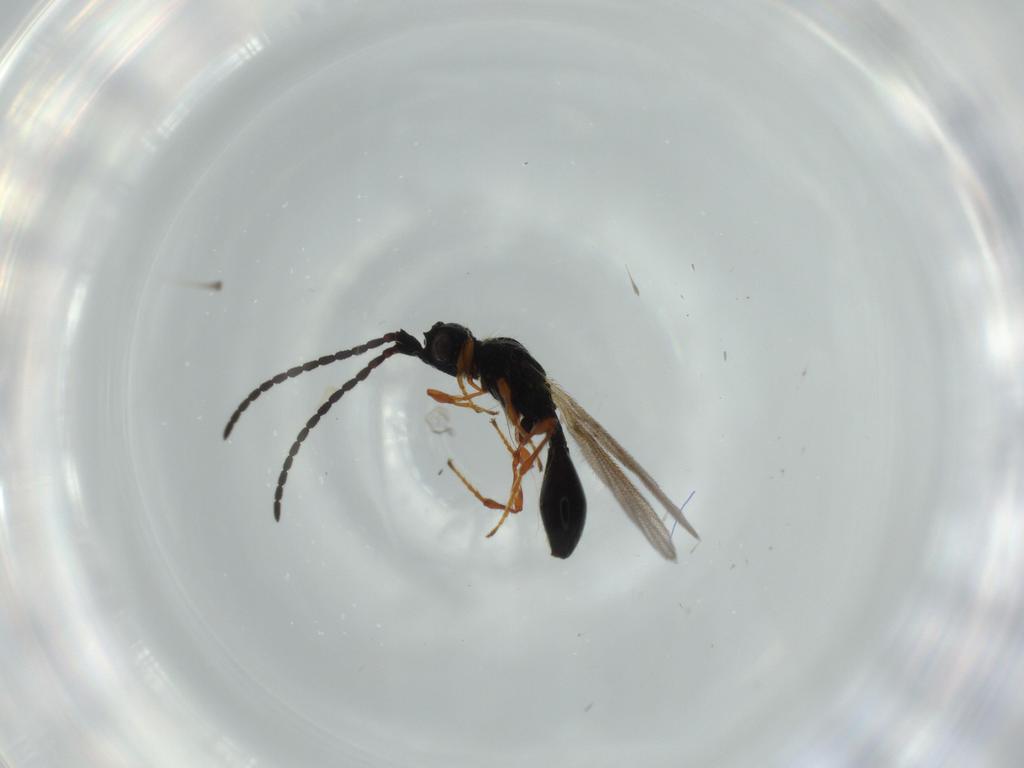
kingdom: Animalia
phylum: Arthropoda
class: Insecta
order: Hymenoptera
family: Diapriidae
